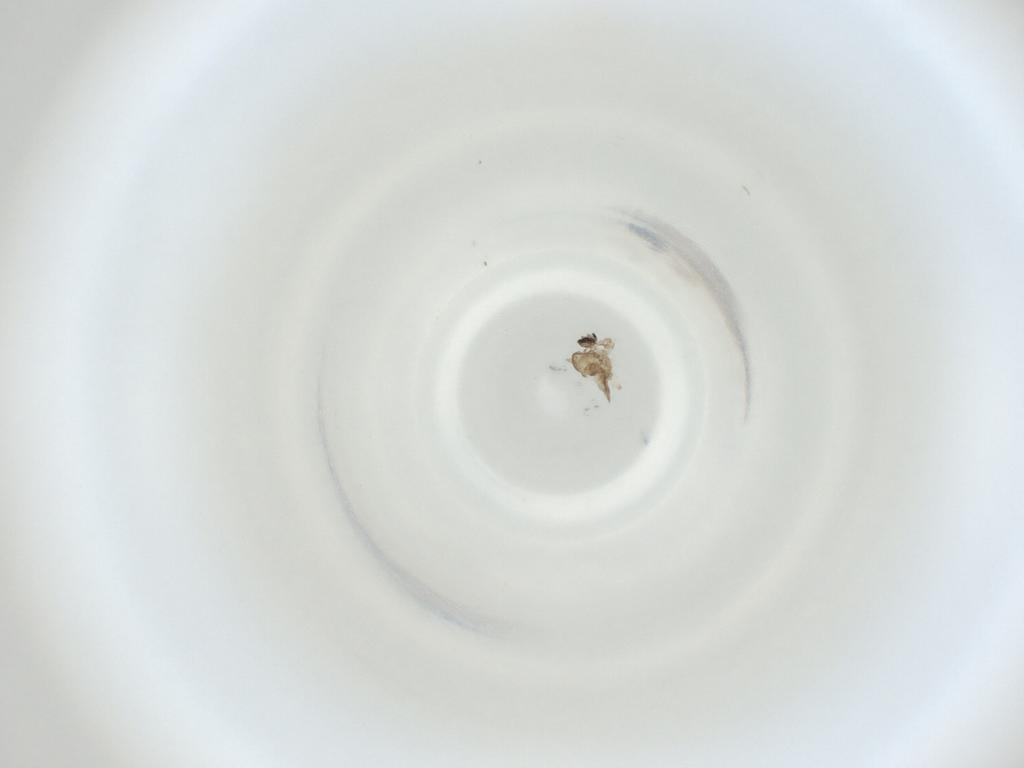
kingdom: Animalia
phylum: Arthropoda
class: Insecta
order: Diptera
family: Cecidomyiidae
